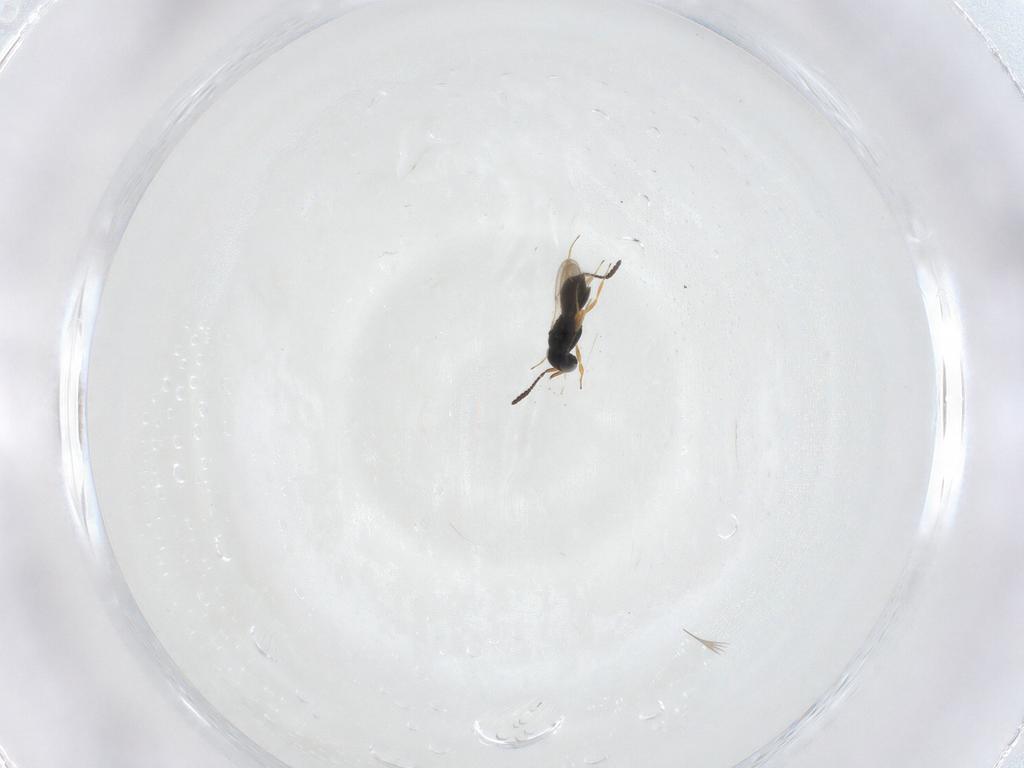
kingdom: Animalia
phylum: Arthropoda
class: Insecta
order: Hymenoptera
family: Scelionidae
